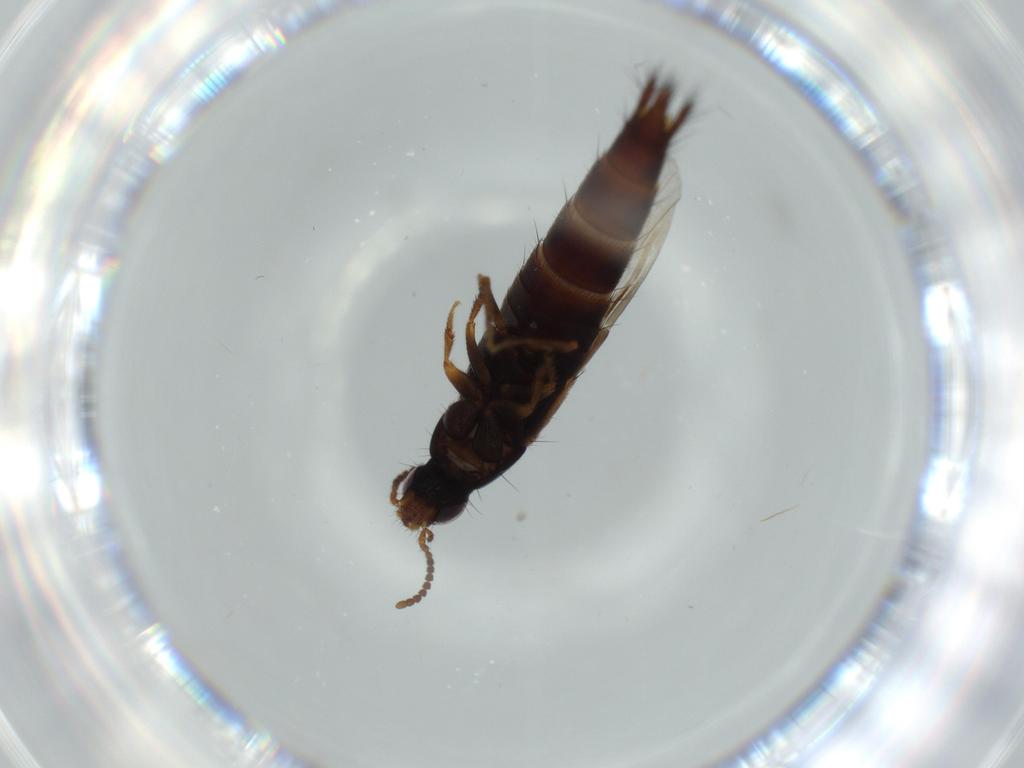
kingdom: Animalia
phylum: Arthropoda
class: Insecta
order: Coleoptera
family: Staphylinidae
